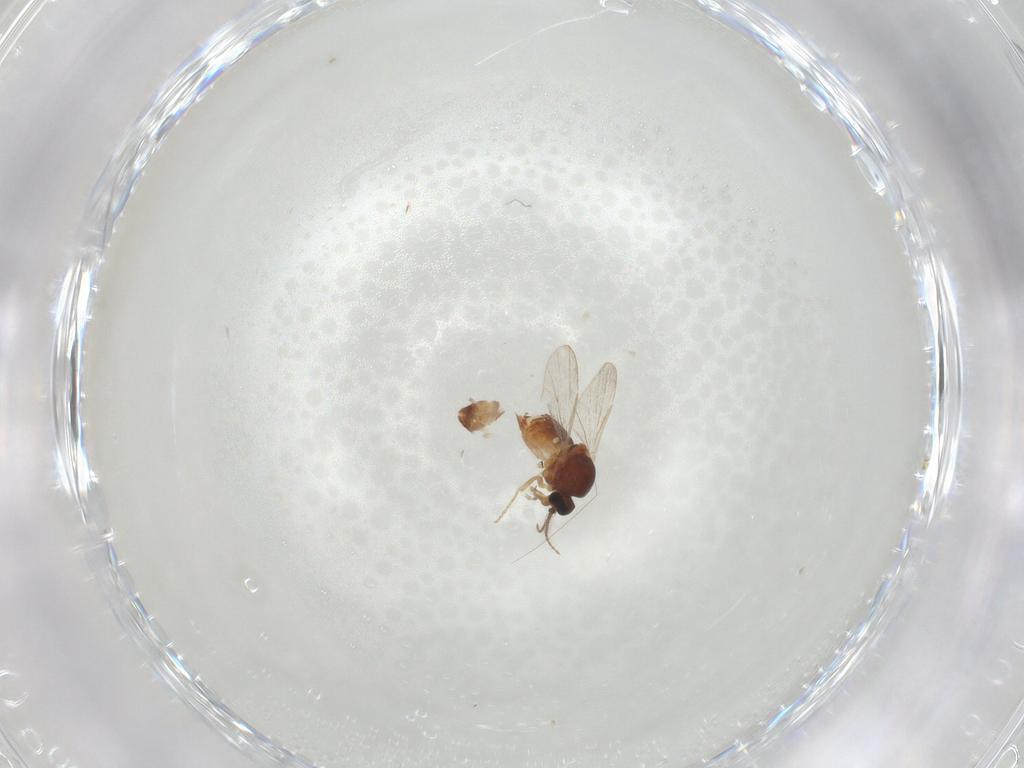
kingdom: Animalia
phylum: Arthropoda
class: Insecta
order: Diptera
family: Ceratopogonidae
